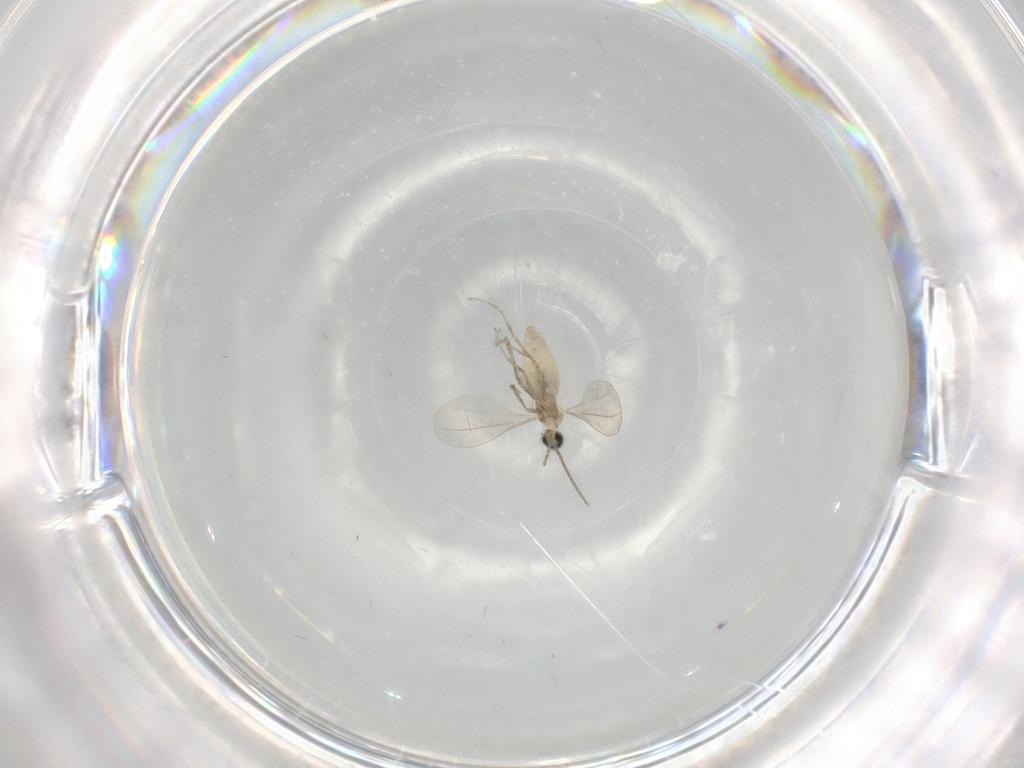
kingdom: Animalia
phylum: Arthropoda
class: Insecta
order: Diptera
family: Cecidomyiidae
